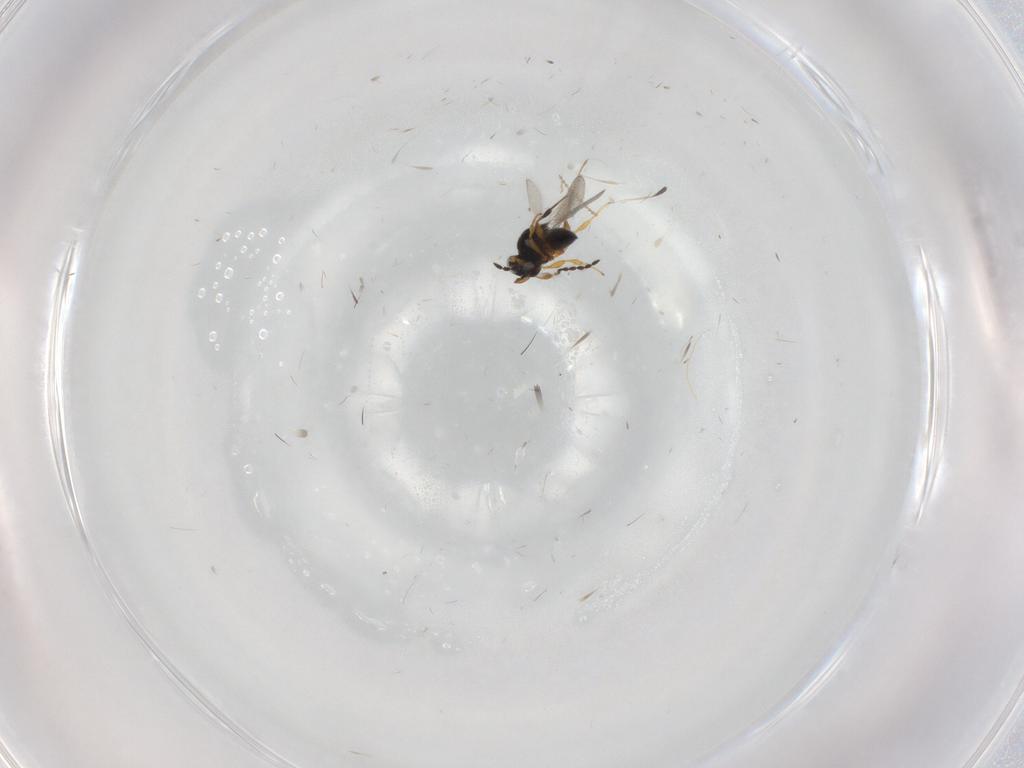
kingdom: Animalia
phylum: Arthropoda
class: Insecta
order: Hymenoptera
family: Platygastridae
